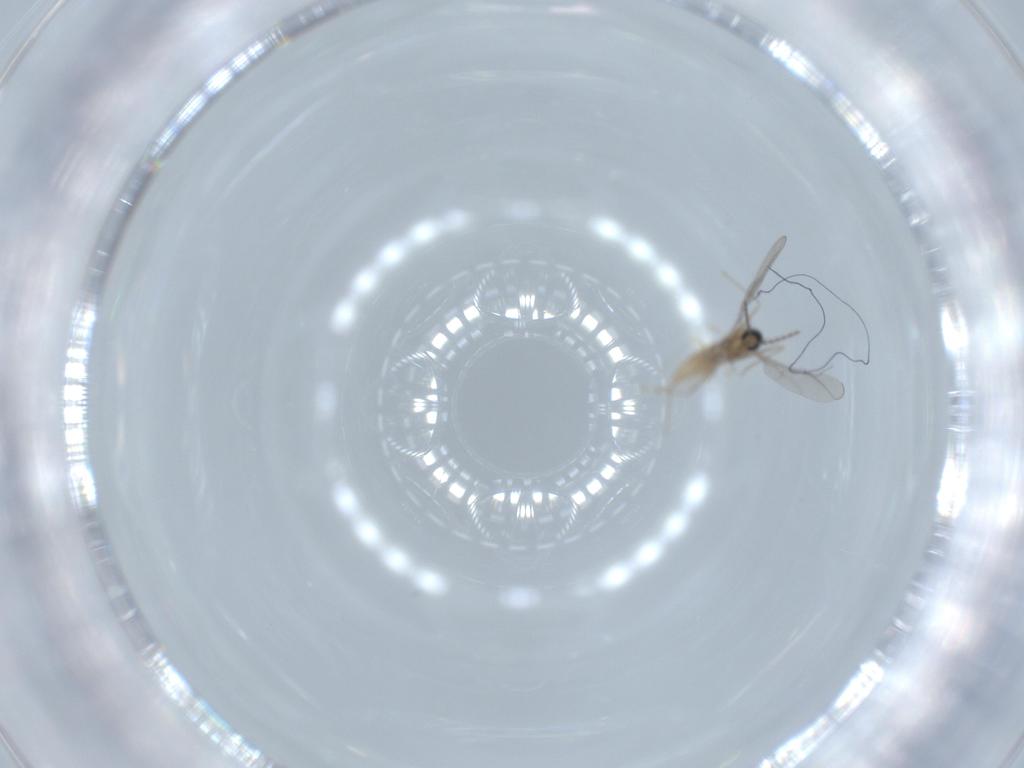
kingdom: Animalia
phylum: Arthropoda
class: Insecta
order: Diptera
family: Cecidomyiidae
